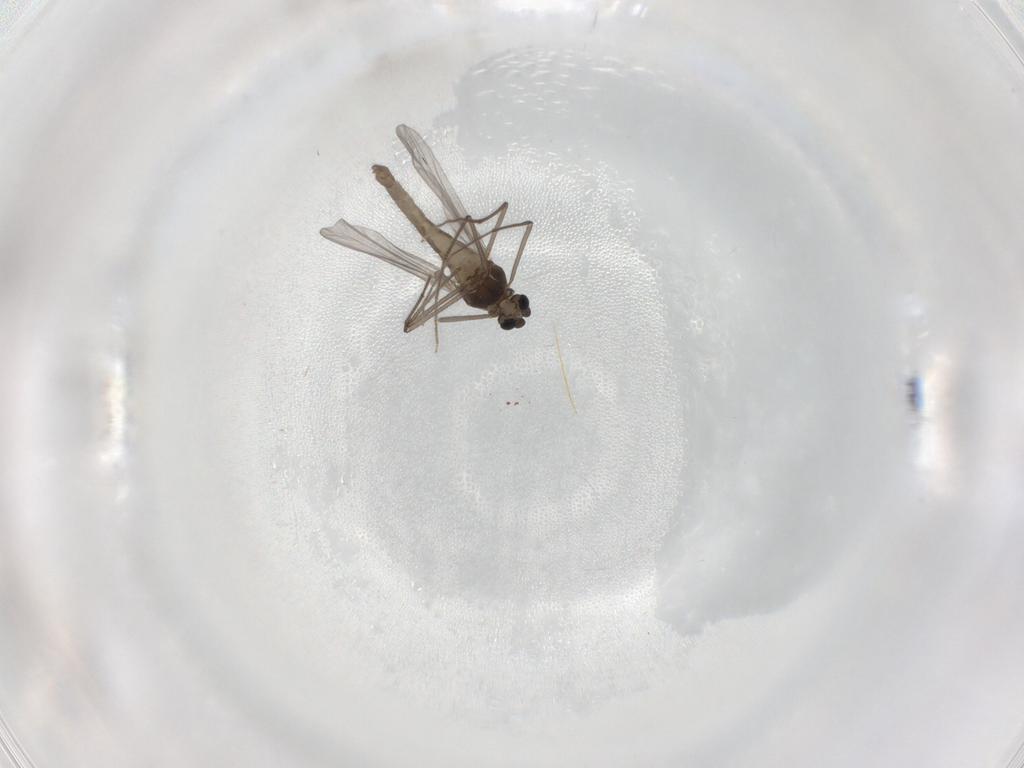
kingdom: Animalia
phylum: Arthropoda
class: Insecta
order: Diptera
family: Chironomidae
